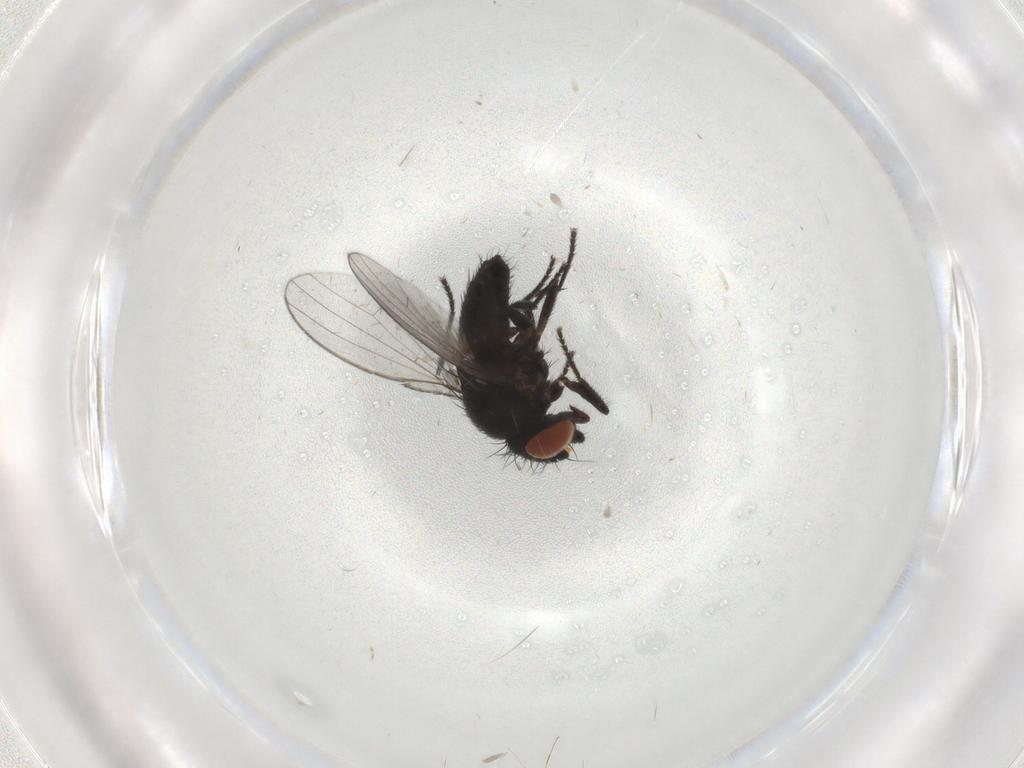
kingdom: Animalia
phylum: Arthropoda
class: Insecta
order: Diptera
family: Milichiidae
